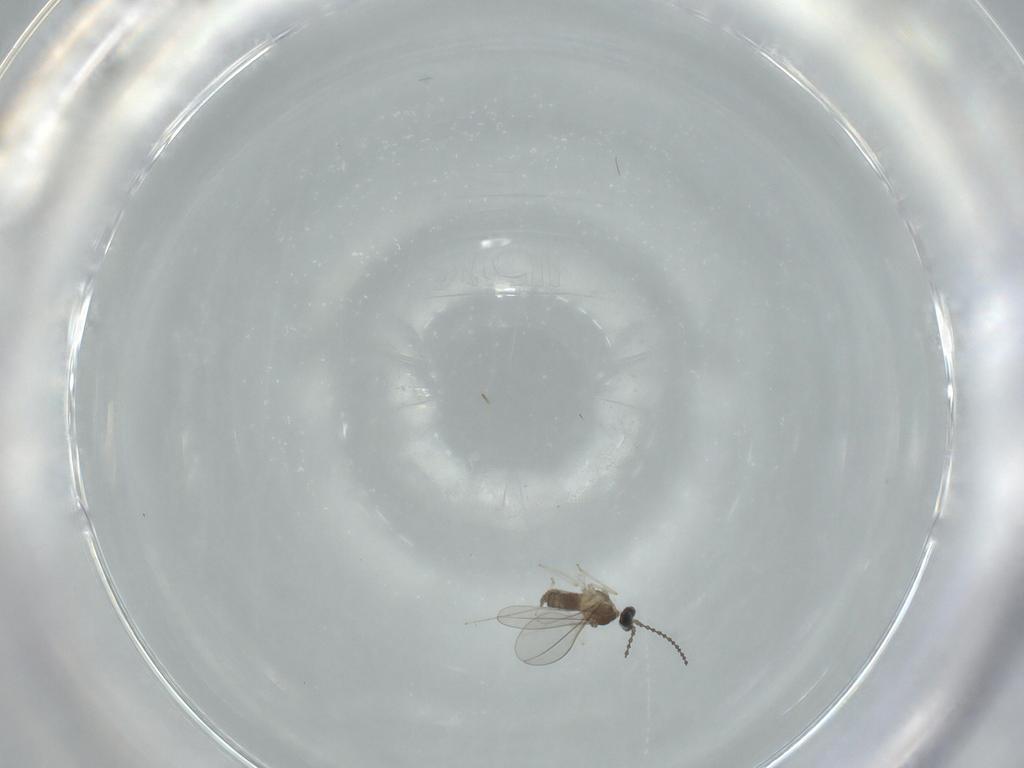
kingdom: Animalia
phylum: Arthropoda
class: Insecta
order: Diptera
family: Cecidomyiidae
